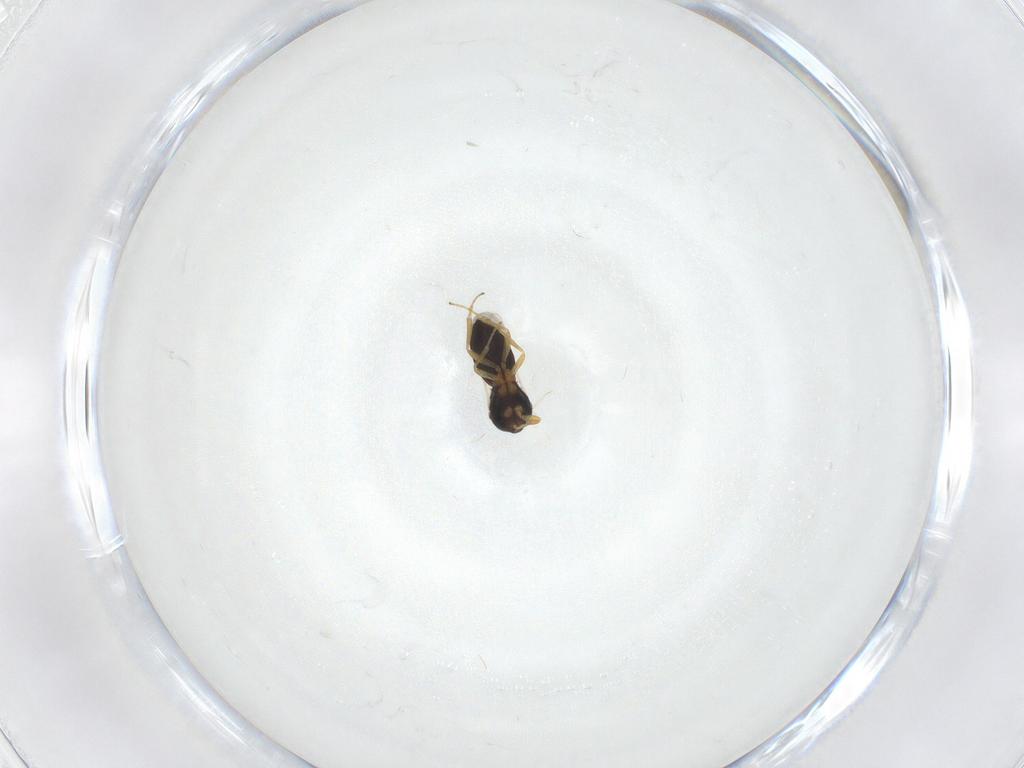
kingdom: Animalia
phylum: Arthropoda
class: Insecta
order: Hymenoptera
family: Scelionidae
